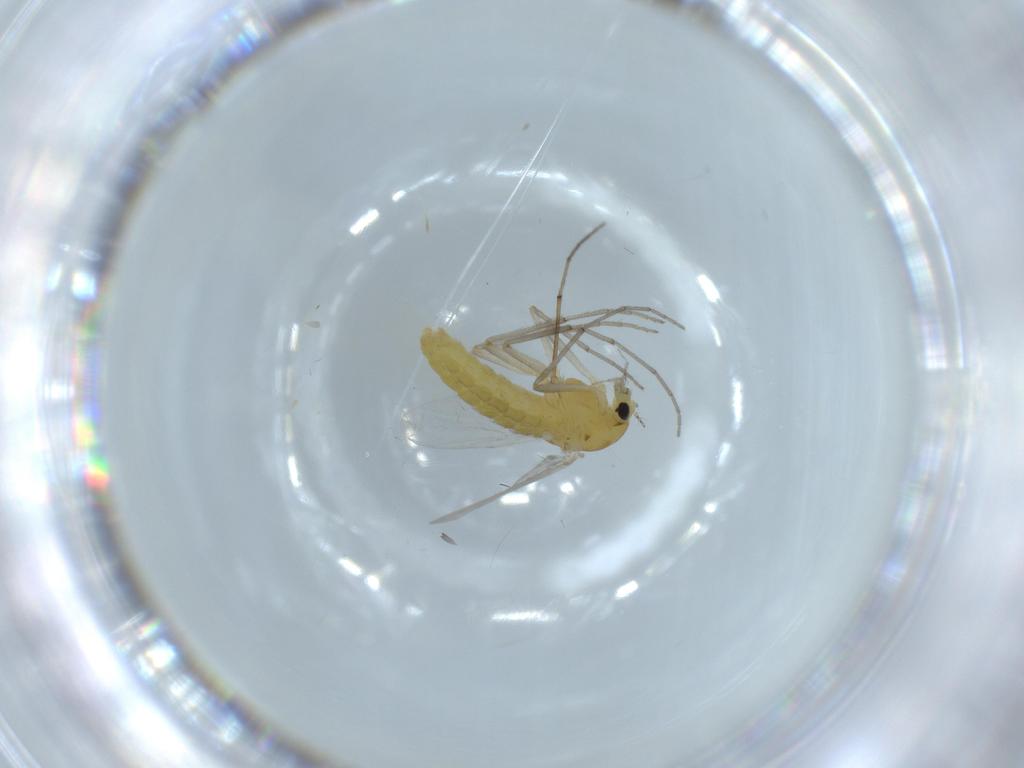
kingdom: Animalia
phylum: Arthropoda
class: Insecta
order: Diptera
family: Chironomidae
